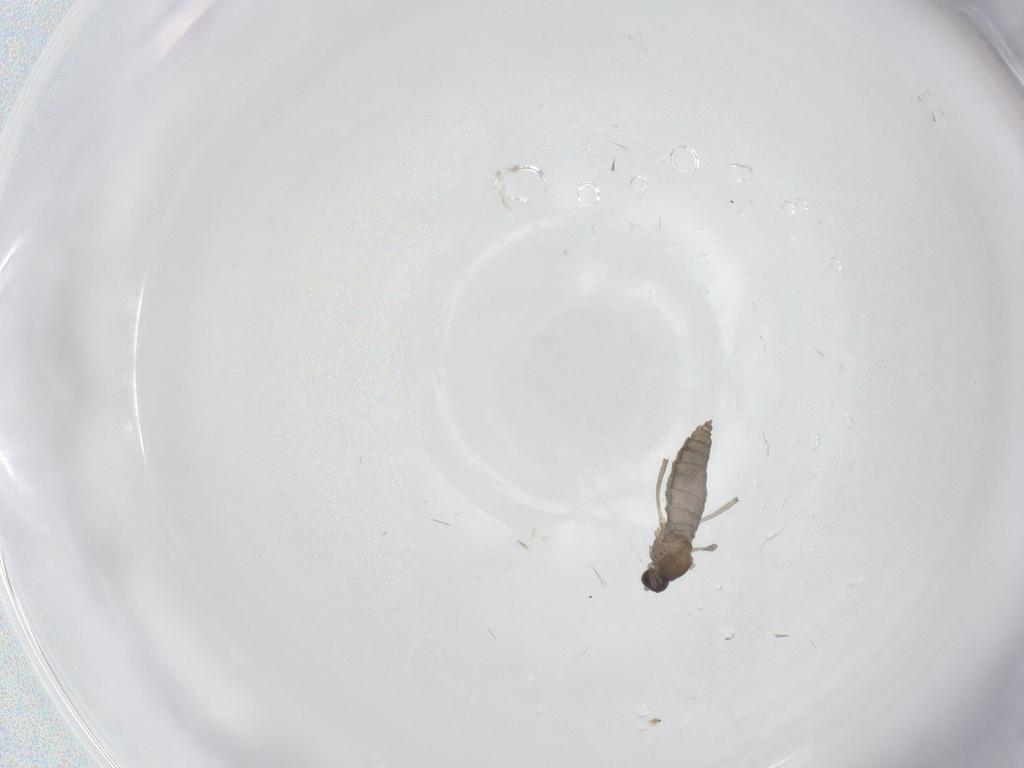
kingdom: Animalia
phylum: Arthropoda
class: Insecta
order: Diptera
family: Cecidomyiidae
